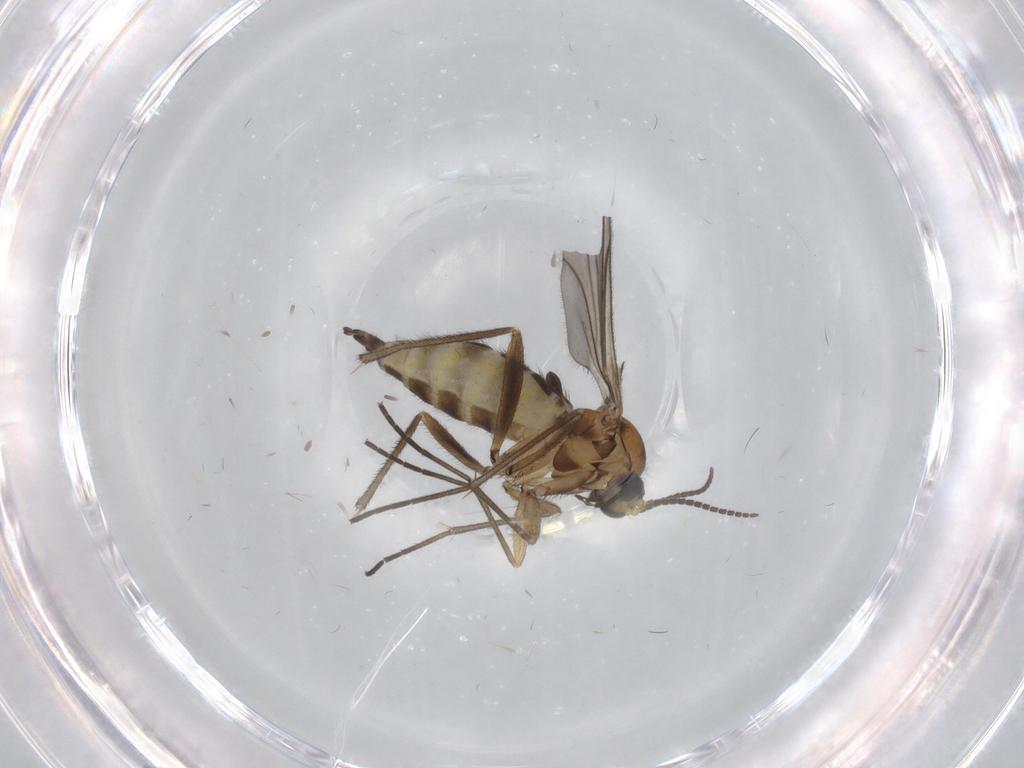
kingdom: Animalia
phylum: Arthropoda
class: Insecta
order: Diptera
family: Sciaridae
